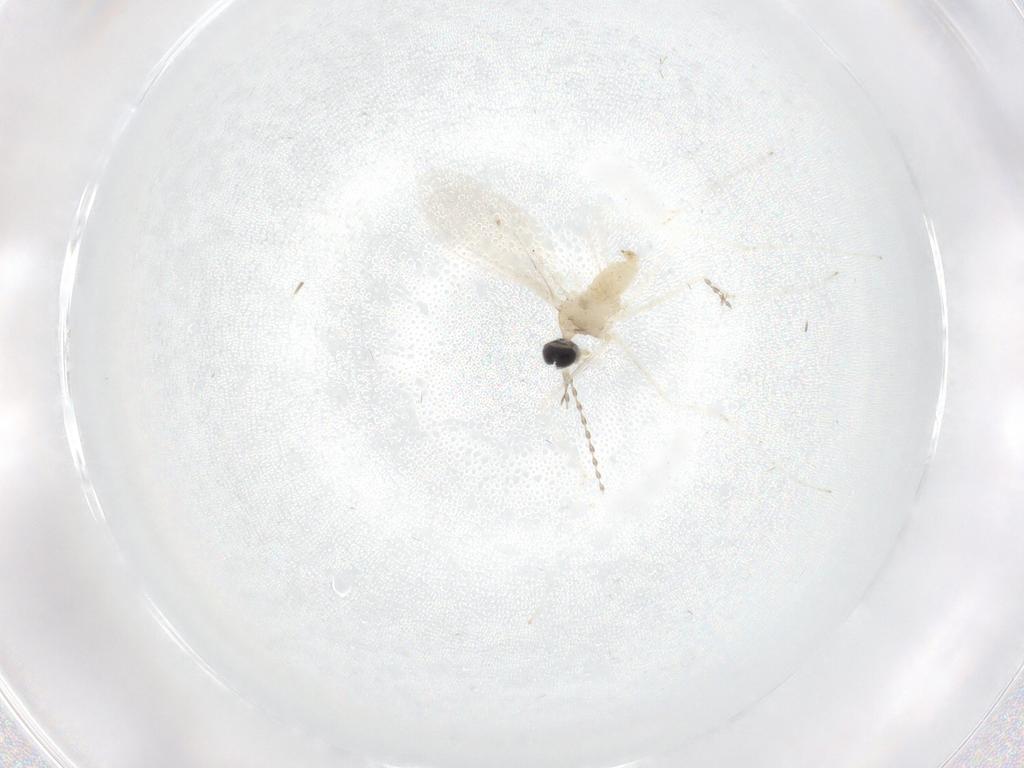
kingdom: Animalia
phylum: Arthropoda
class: Insecta
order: Diptera
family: Cecidomyiidae
